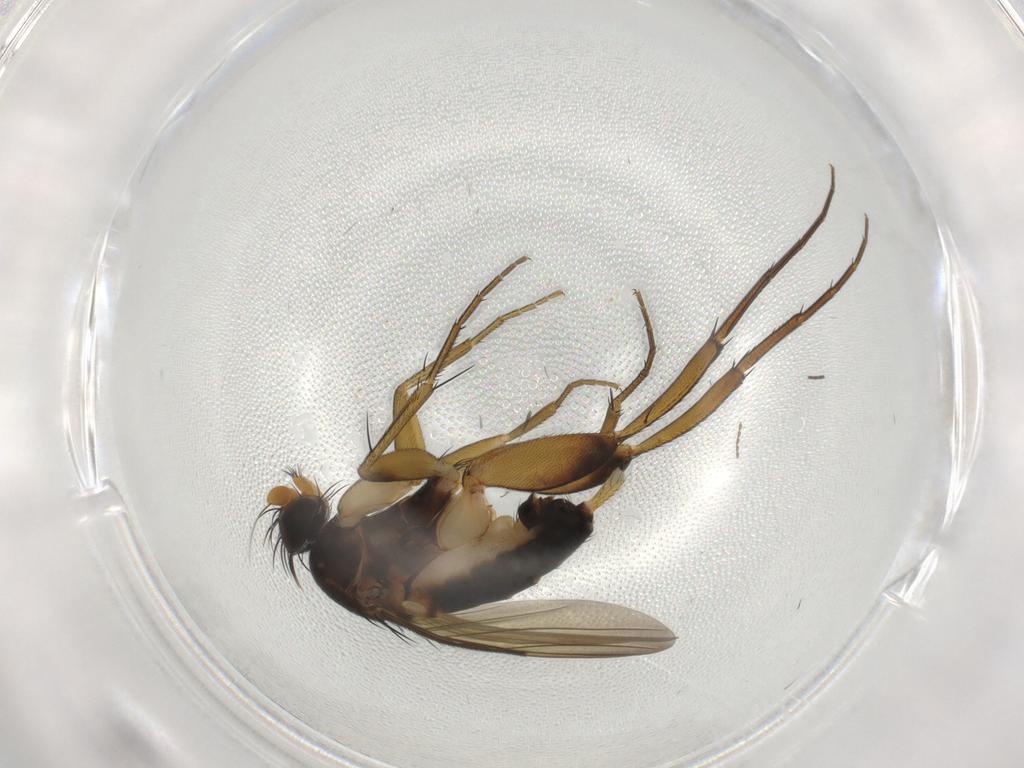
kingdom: Animalia
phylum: Arthropoda
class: Insecta
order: Diptera
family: Phoridae
